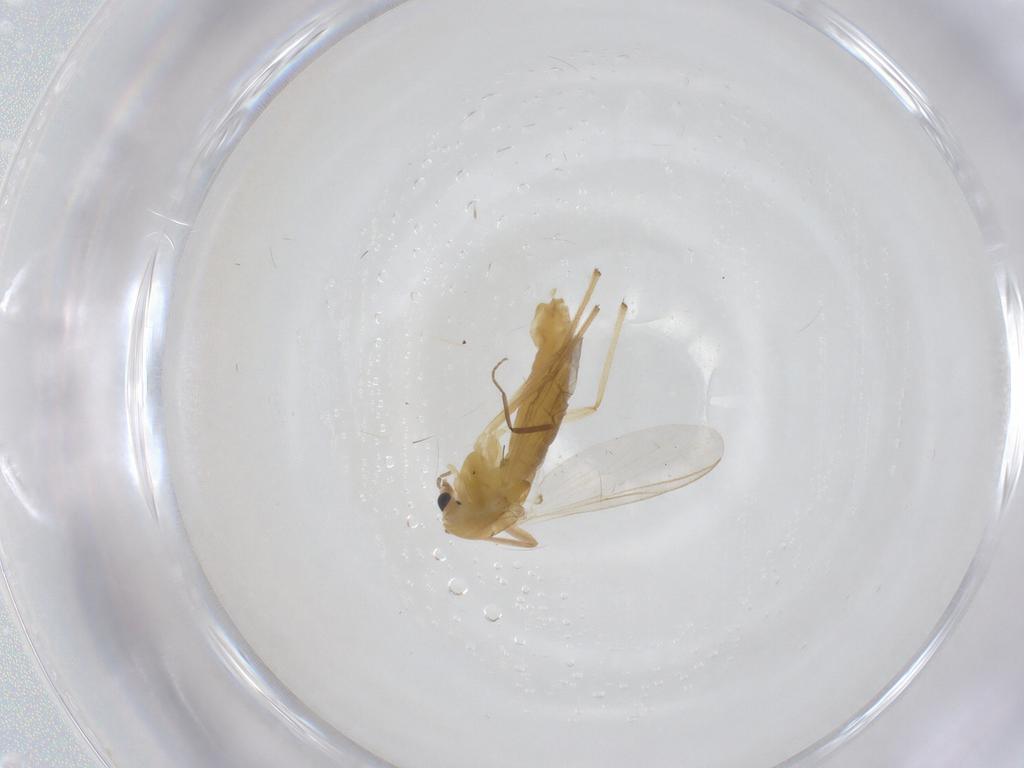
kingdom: Animalia
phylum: Arthropoda
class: Insecta
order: Diptera
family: Chironomidae
